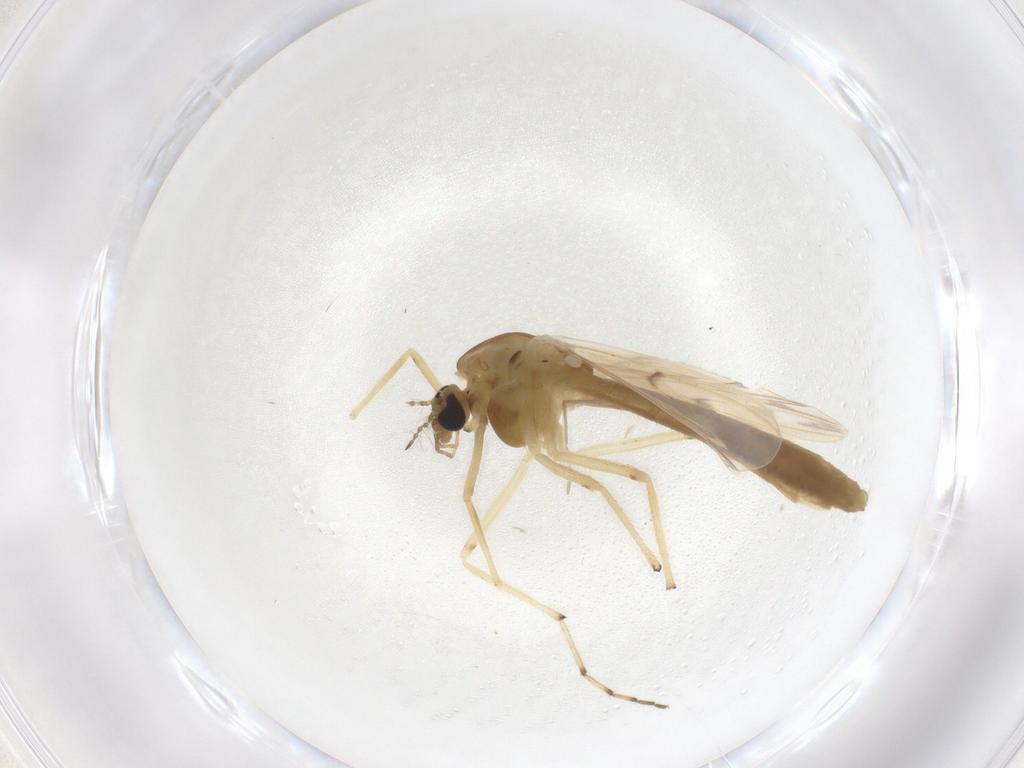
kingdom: Animalia
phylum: Arthropoda
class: Insecta
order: Diptera
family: Chironomidae
